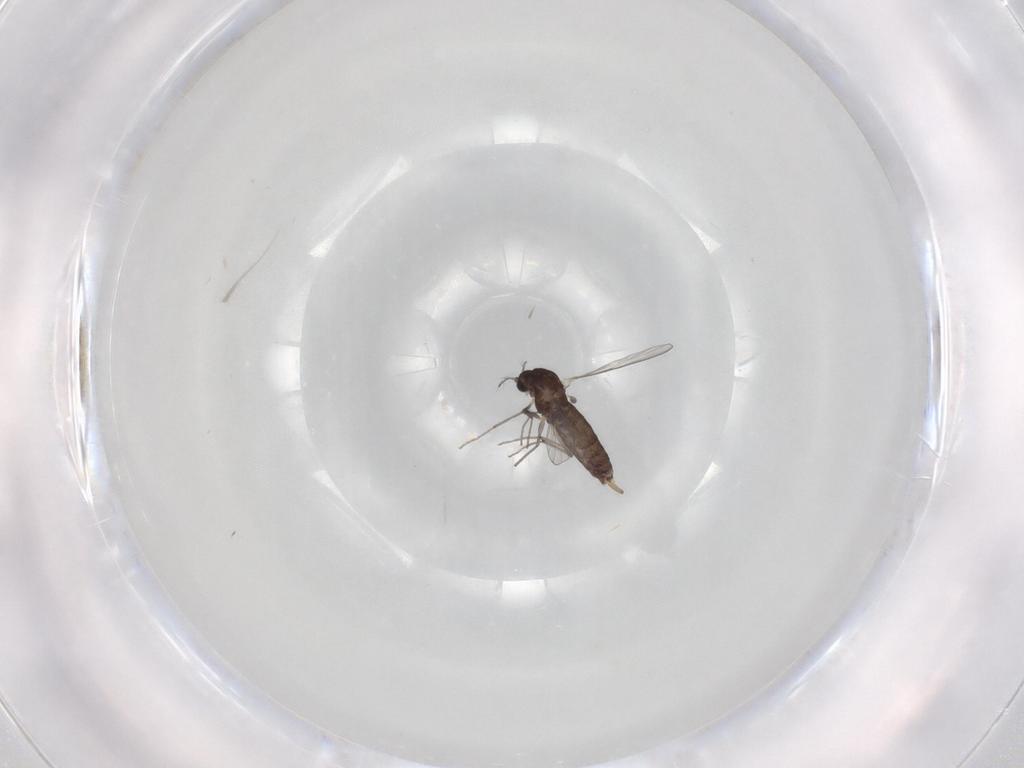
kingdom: Animalia
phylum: Arthropoda
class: Insecta
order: Diptera
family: Chironomidae
